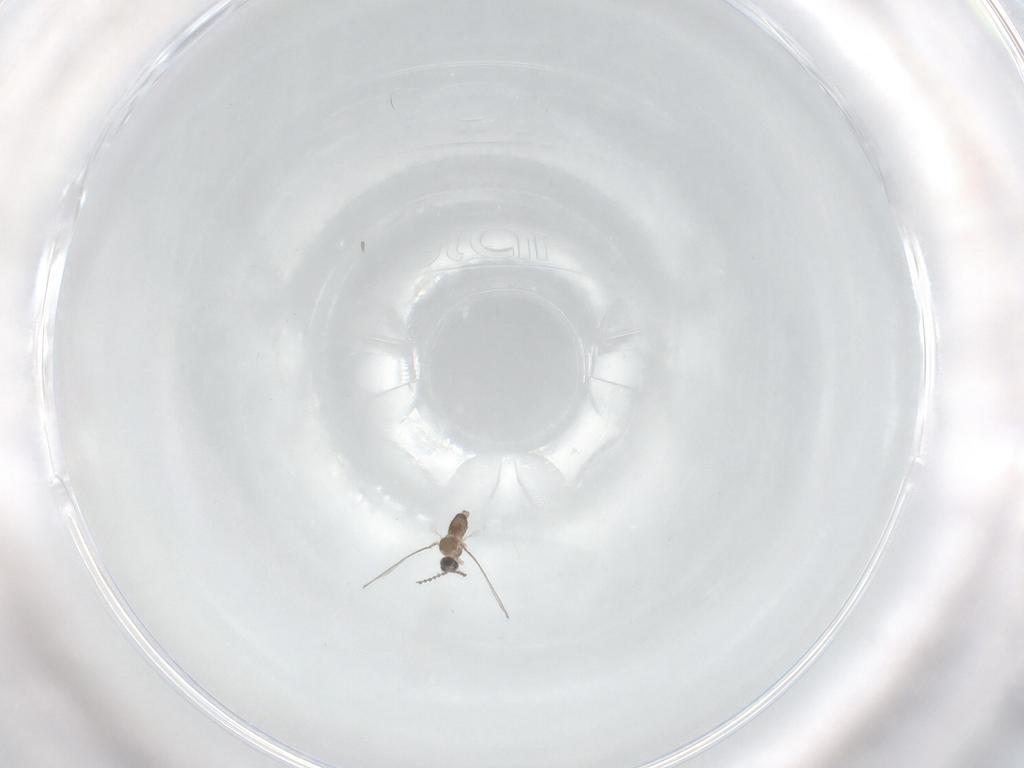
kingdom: Animalia
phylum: Arthropoda
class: Insecta
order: Diptera
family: Cecidomyiidae
